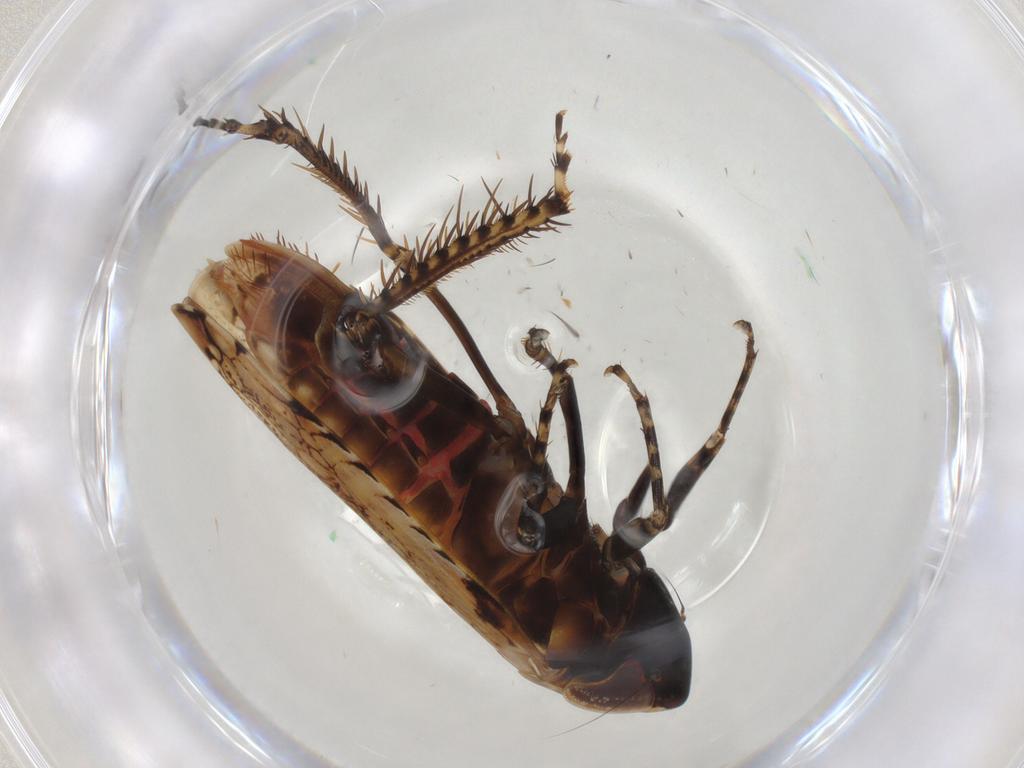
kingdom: Animalia
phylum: Arthropoda
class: Insecta
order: Hemiptera
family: Cicadellidae
